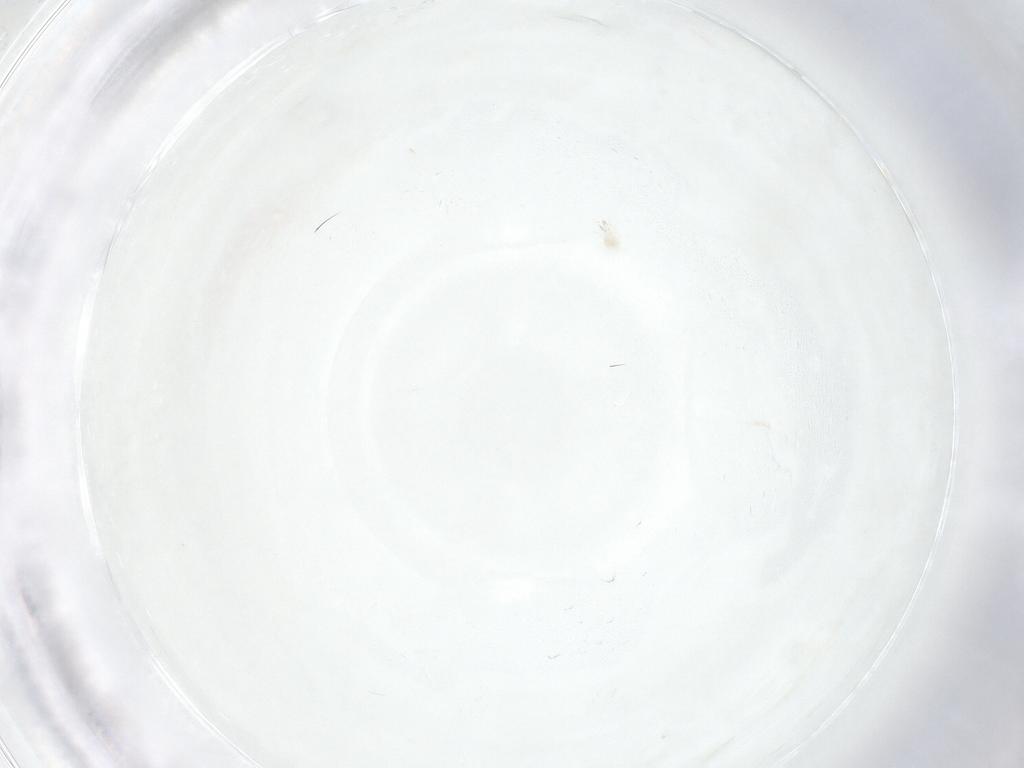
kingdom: Animalia
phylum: Arthropoda
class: Arachnida
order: Mesostigmata
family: Melicharidae
